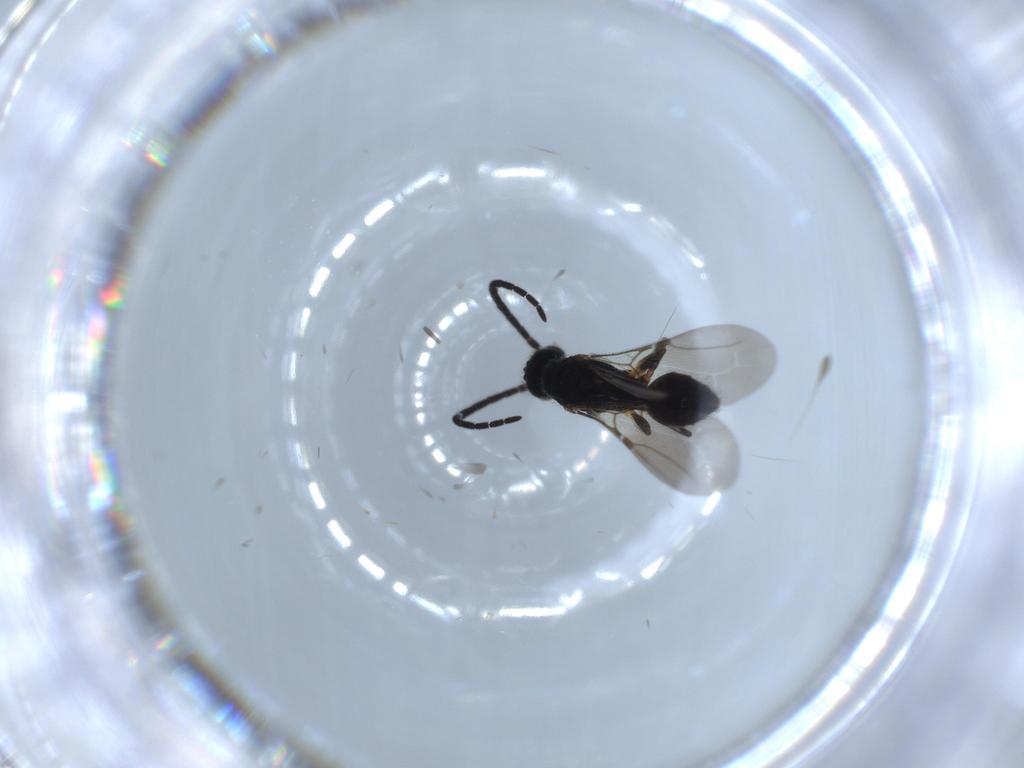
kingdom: Animalia
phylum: Arthropoda
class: Insecta
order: Hymenoptera
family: Bethylidae
